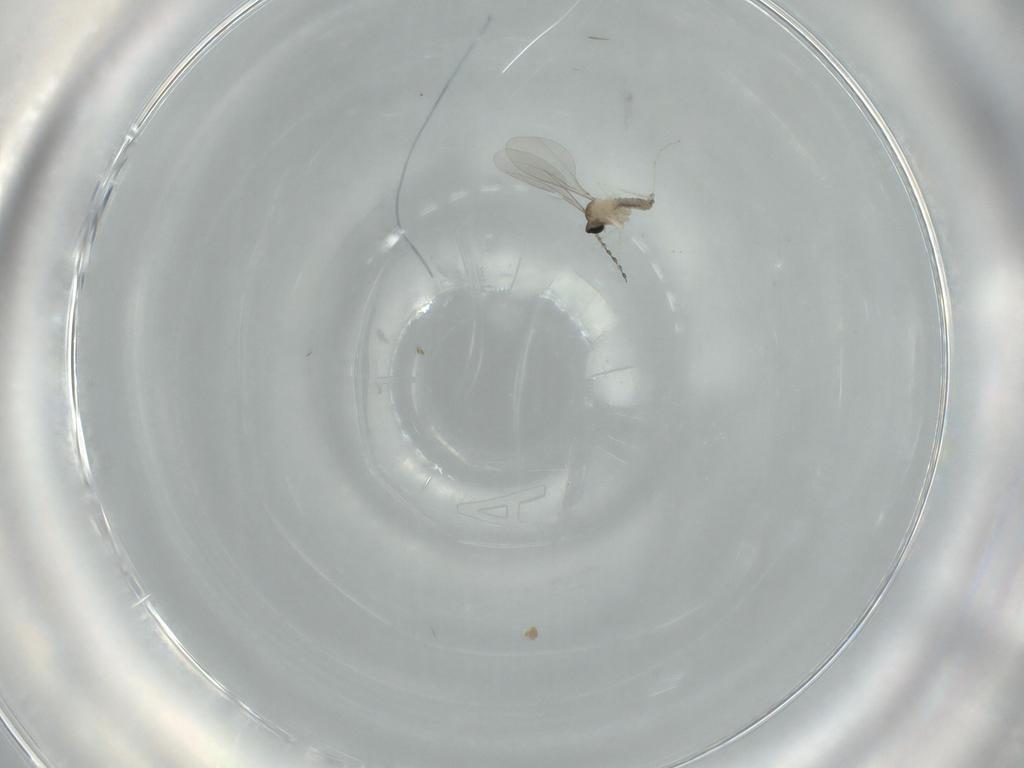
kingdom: Animalia
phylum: Arthropoda
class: Insecta
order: Diptera
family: Cecidomyiidae
